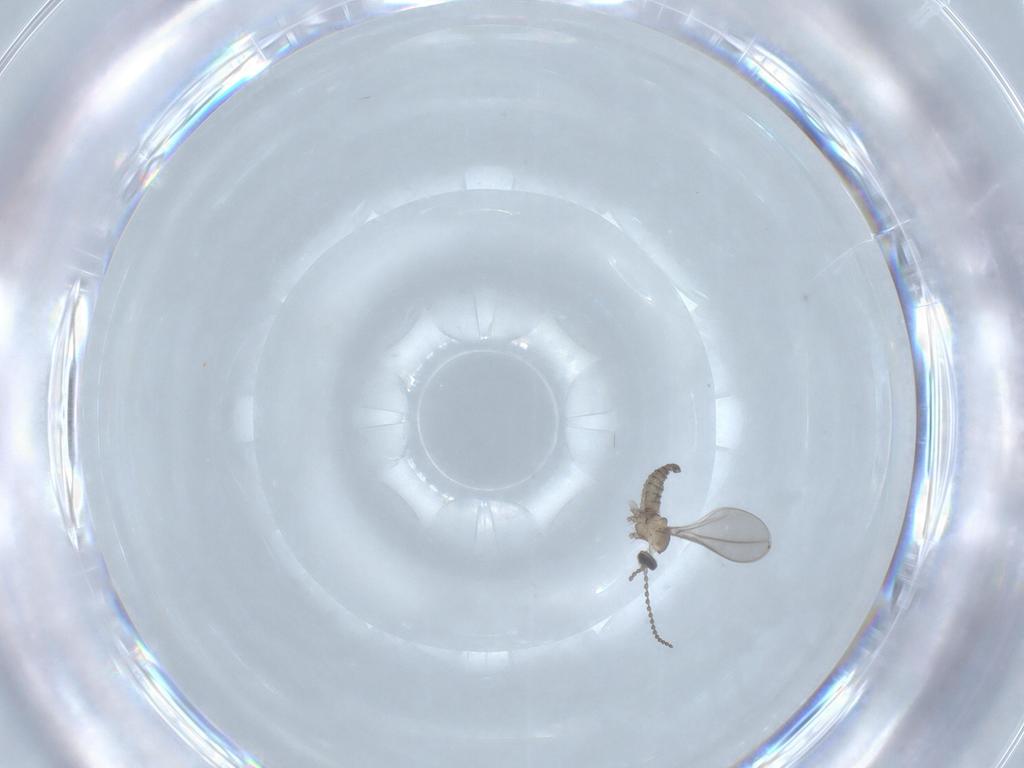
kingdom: Animalia
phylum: Arthropoda
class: Insecta
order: Diptera
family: Cecidomyiidae
